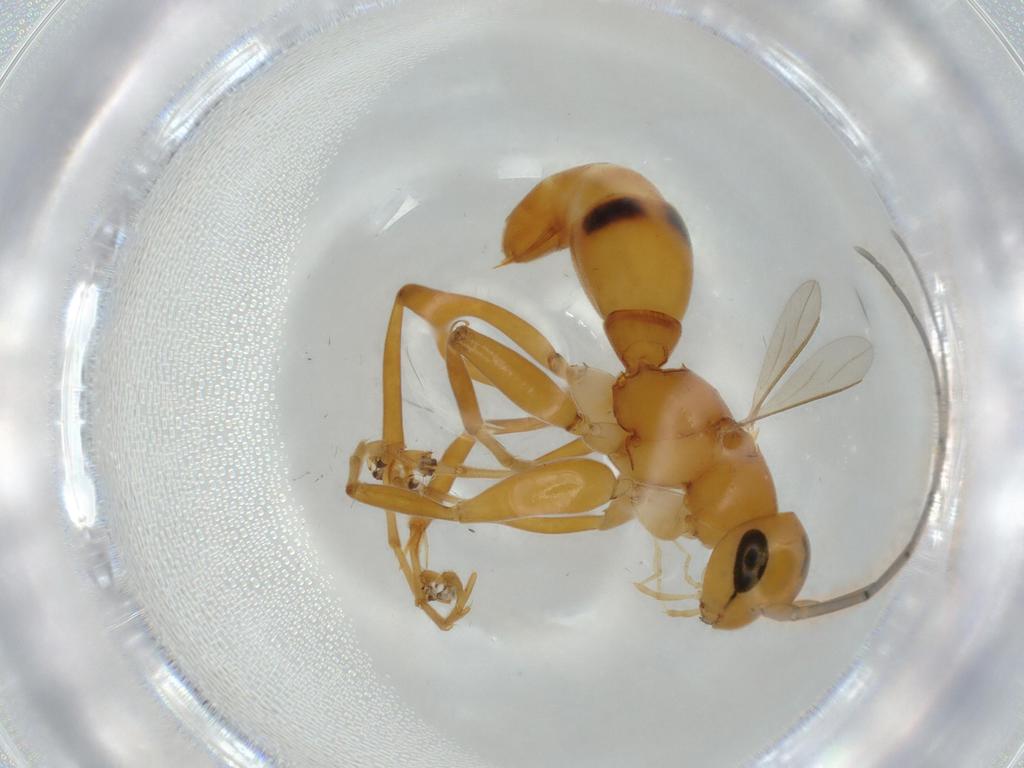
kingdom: Animalia
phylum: Arthropoda
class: Insecta
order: Hymenoptera
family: Rhopalosomatidae
